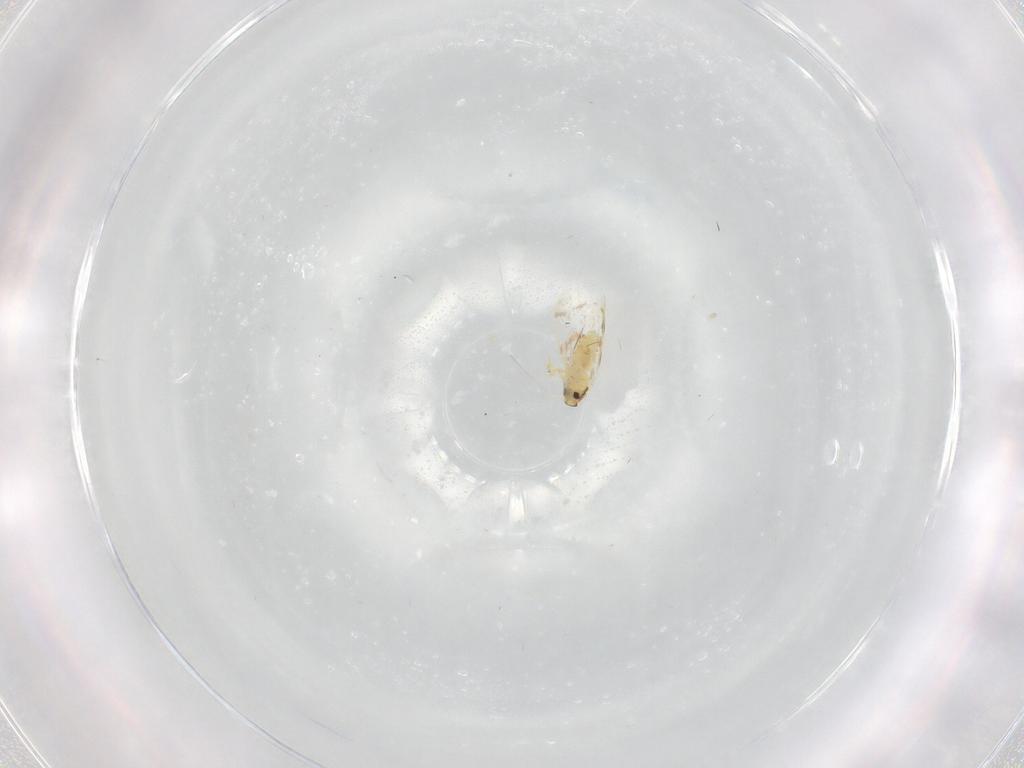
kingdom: Animalia
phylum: Arthropoda
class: Insecta
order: Hemiptera
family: Aleyrodidae
